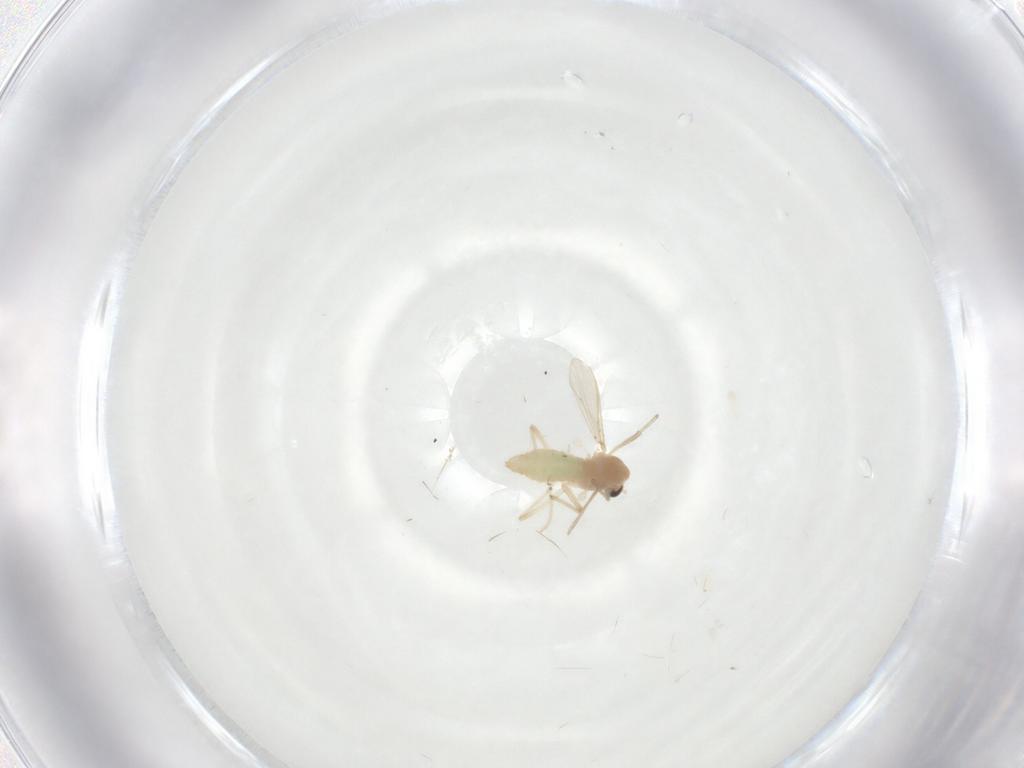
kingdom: Animalia
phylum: Arthropoda
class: Insecta
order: Diptera
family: Chironomidae
